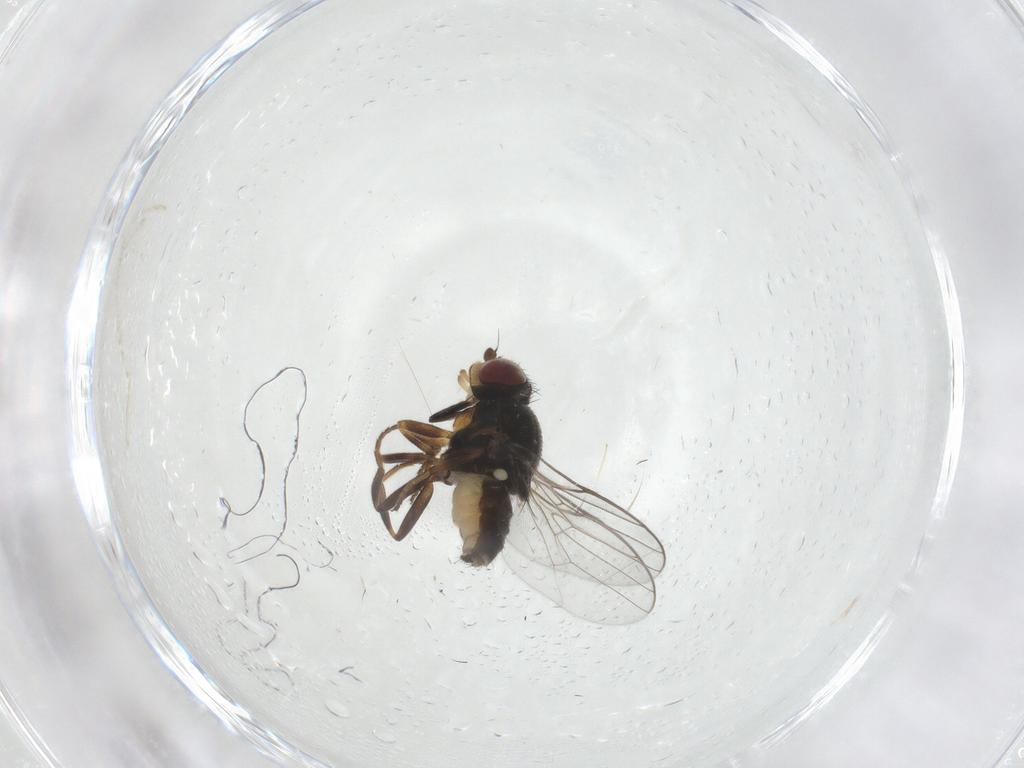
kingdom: Animalia
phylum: Arthropoda
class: Insecta
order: Diptera
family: Chloropidae
